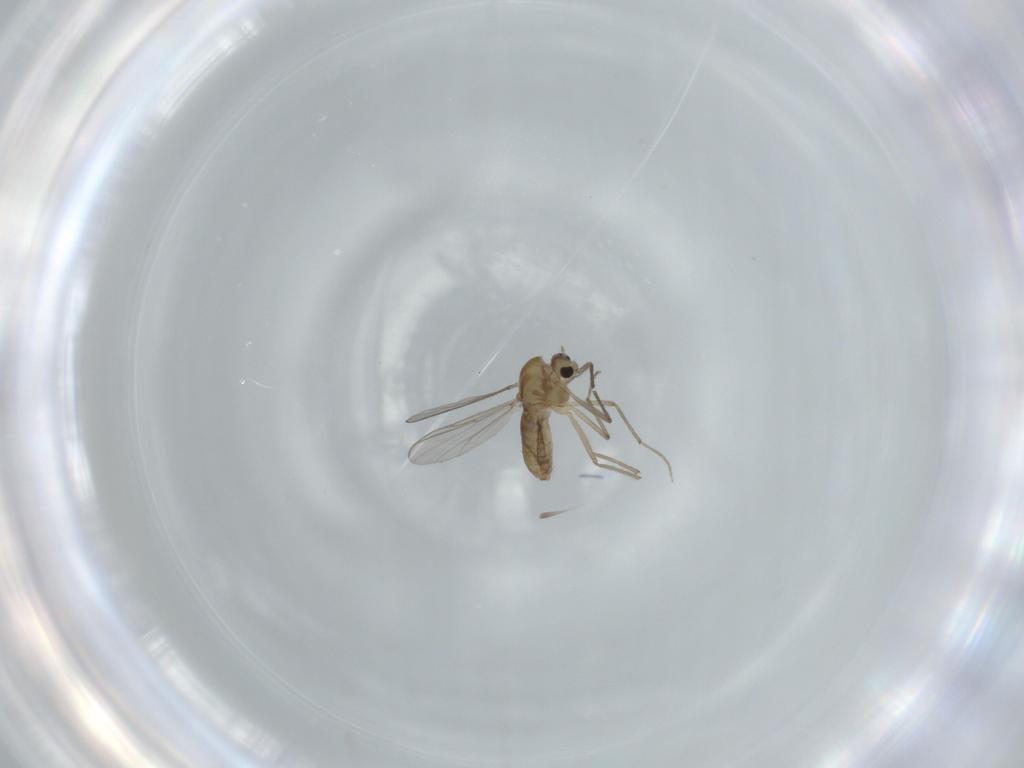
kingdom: Animalia
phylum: Arthropoda
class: Insecta
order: Diptera
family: Chironomidae
